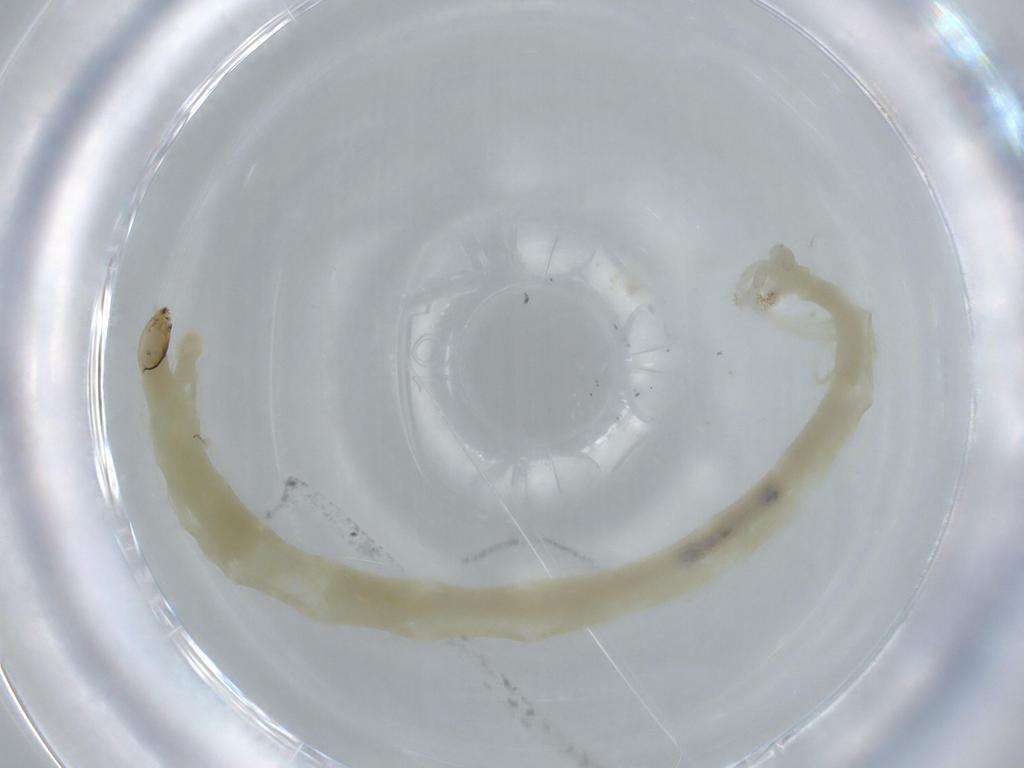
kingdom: Animalia
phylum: Arthropoda
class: Insecta
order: Diptera
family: Chironomidae
